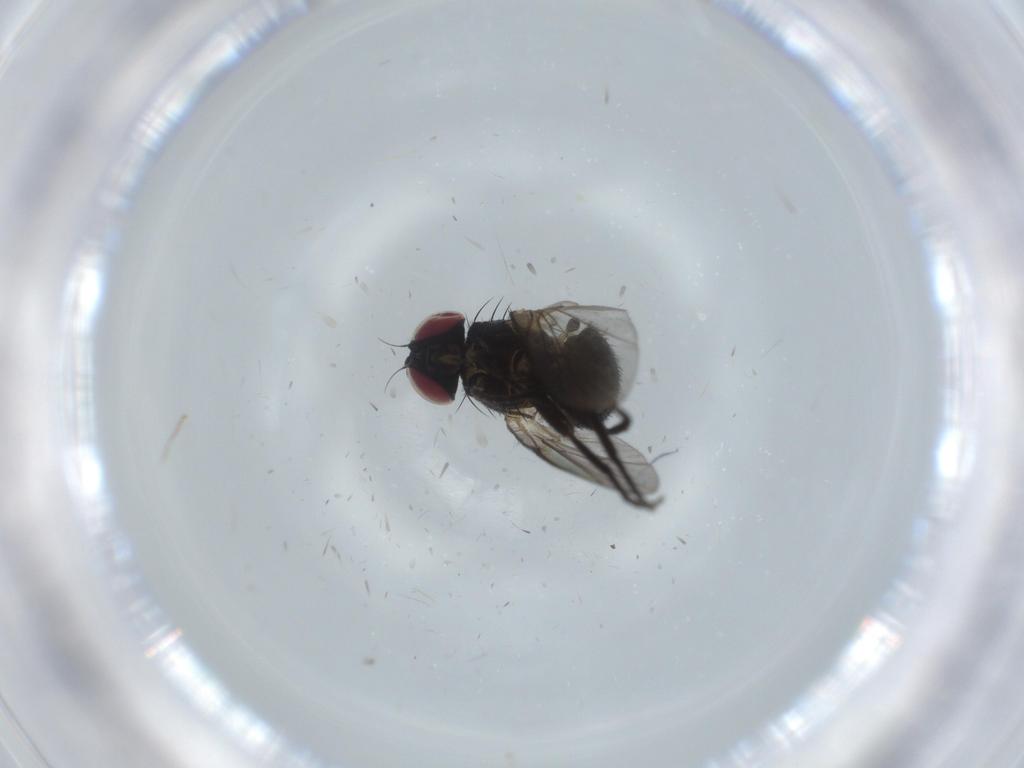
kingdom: Animalia
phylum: Arthropoda
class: Insecta
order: Diptera
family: Agromyzidae
